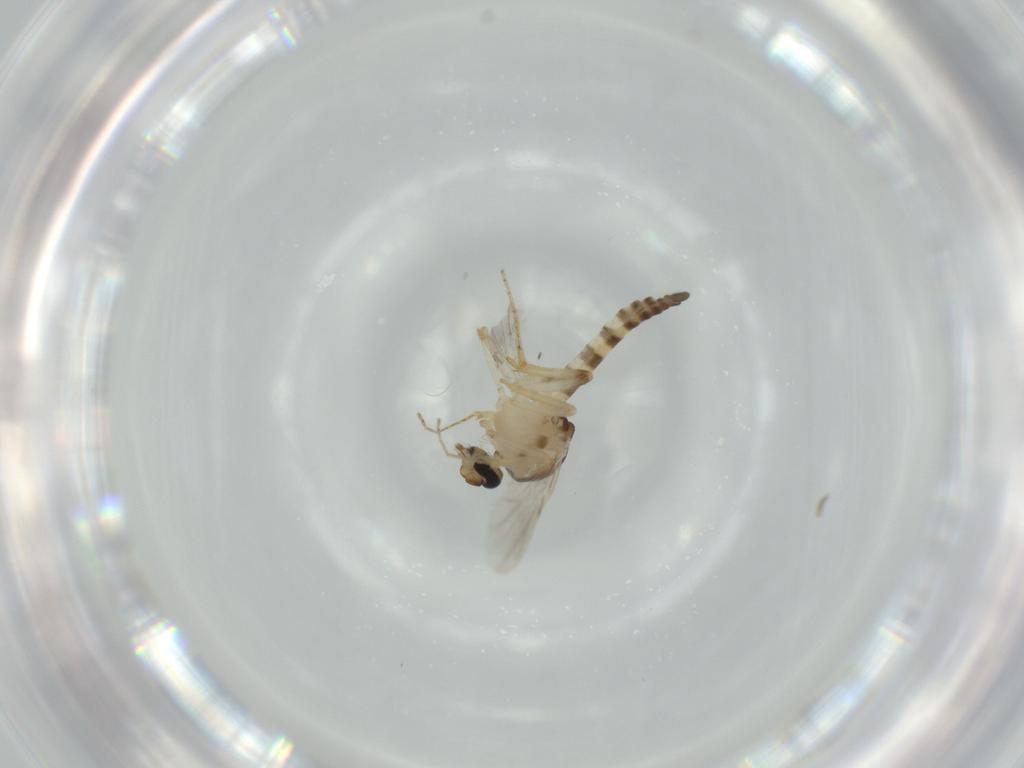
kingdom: Animalia
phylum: Arthropoda
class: Insecta
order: Diptera
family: Ceratopogonidae
